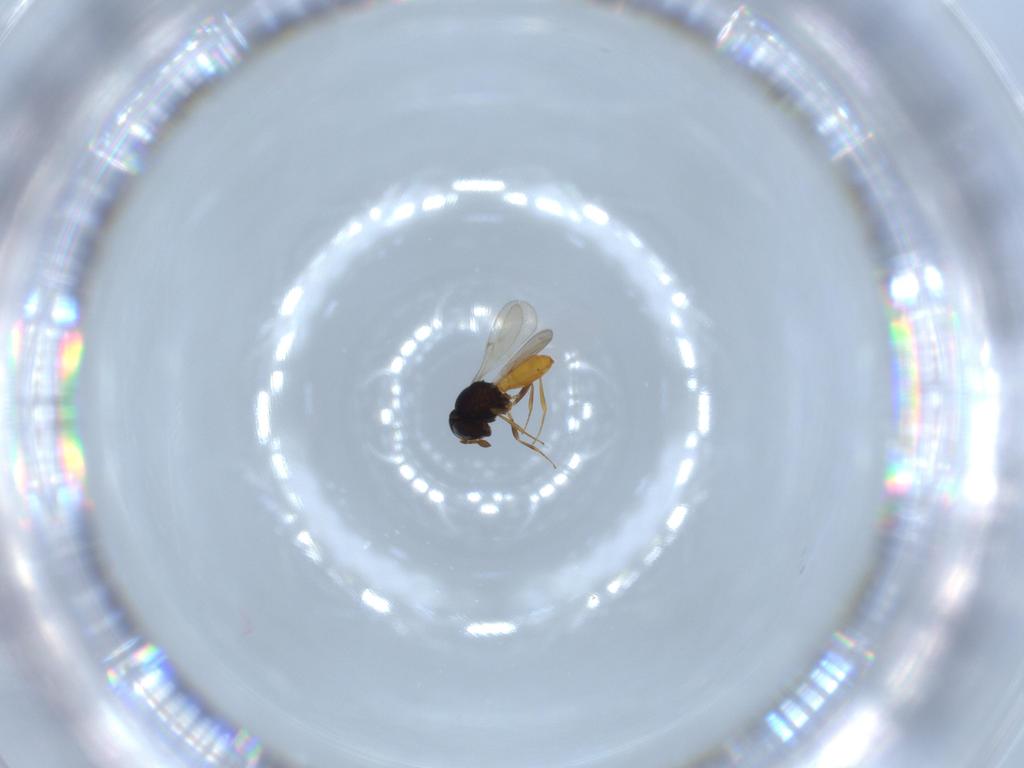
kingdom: Animalia
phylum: Arthropoda
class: Insecta
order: Hymenoptera
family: Scelionidae
